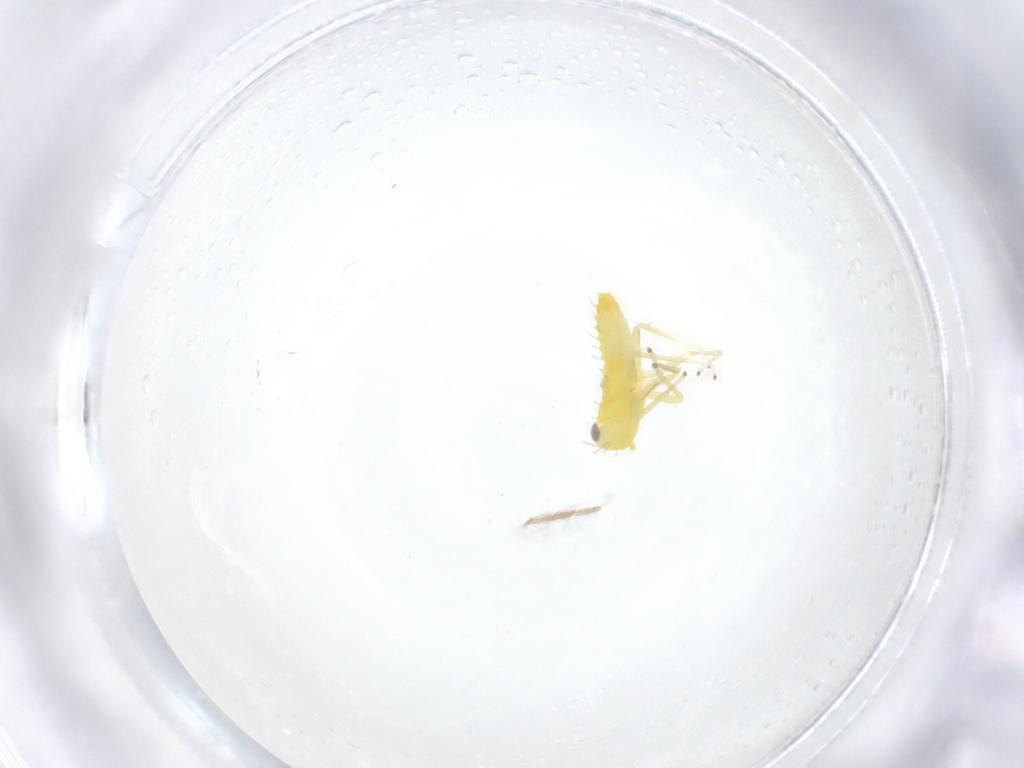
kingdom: Animalia
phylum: Arthropoda
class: Insecta
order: Hemiptera
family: Cicadellidae
